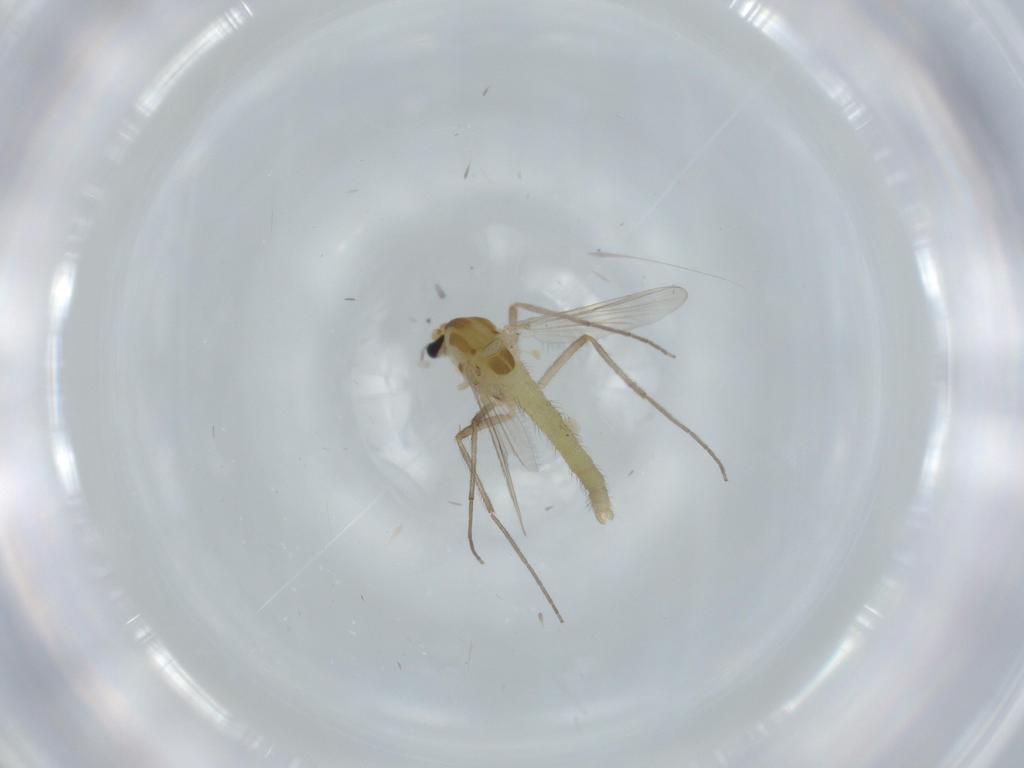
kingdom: Animalia
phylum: Arthropoda
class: Insecta
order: Diptera
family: Chironomidae
